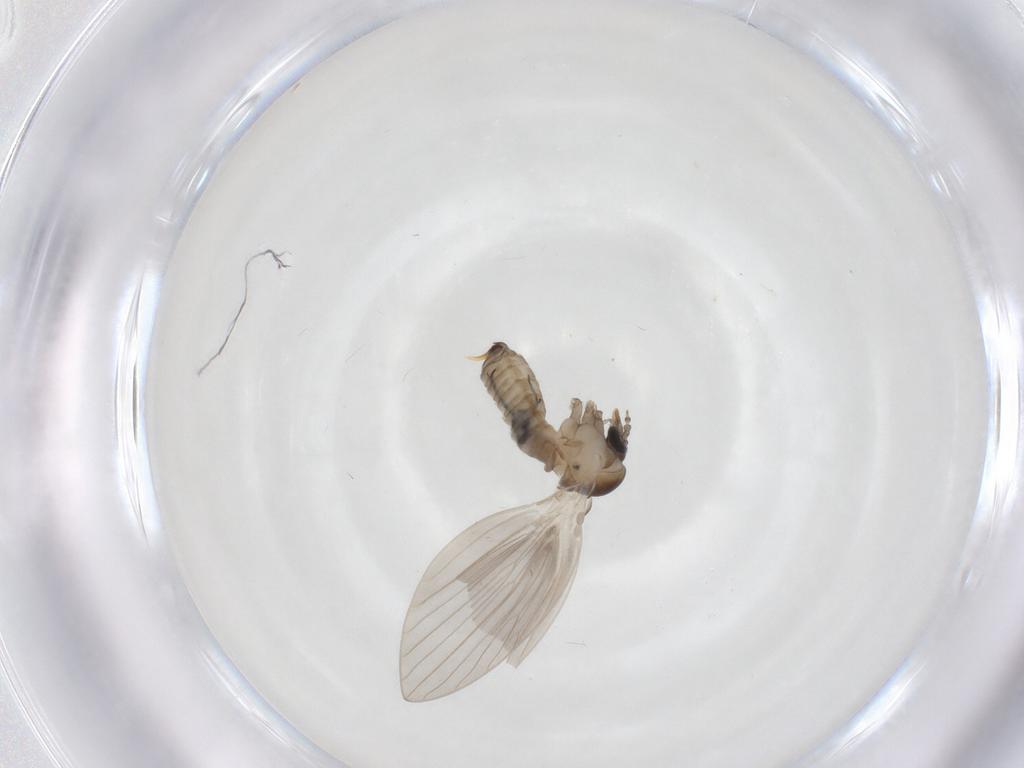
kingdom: Animalia
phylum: Arthropoda
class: Insecta
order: Diptera
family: Psychodidae
